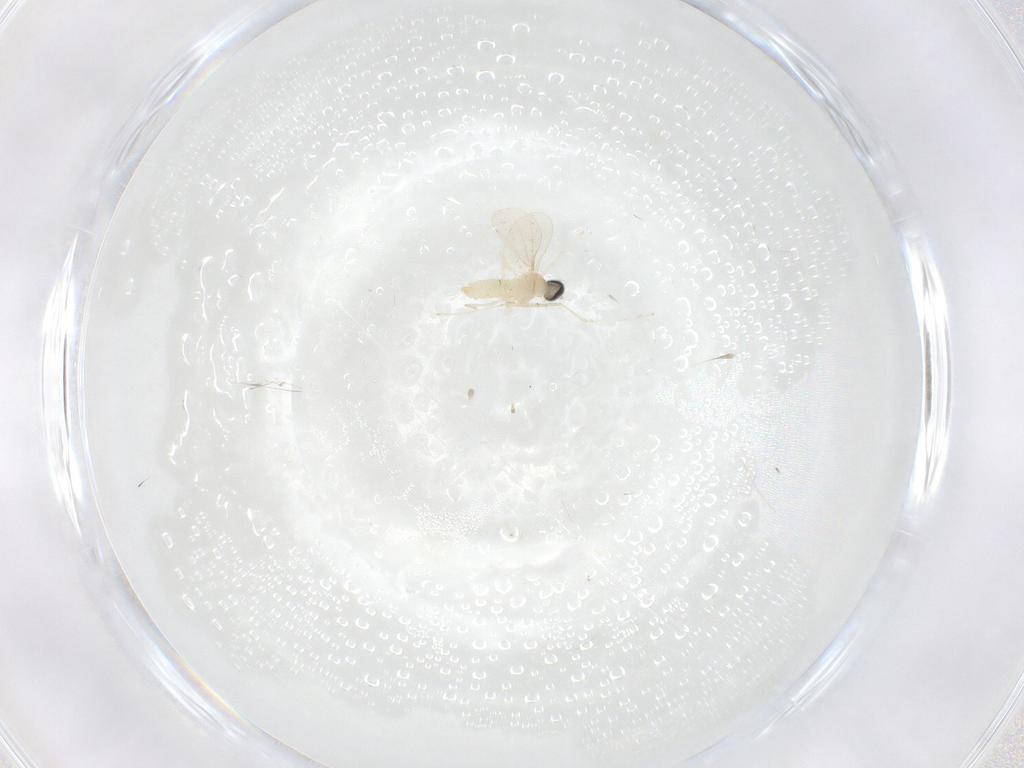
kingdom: Animalia
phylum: Arthropoda
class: Insecta
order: Diptera
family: Cecidomyiidae
